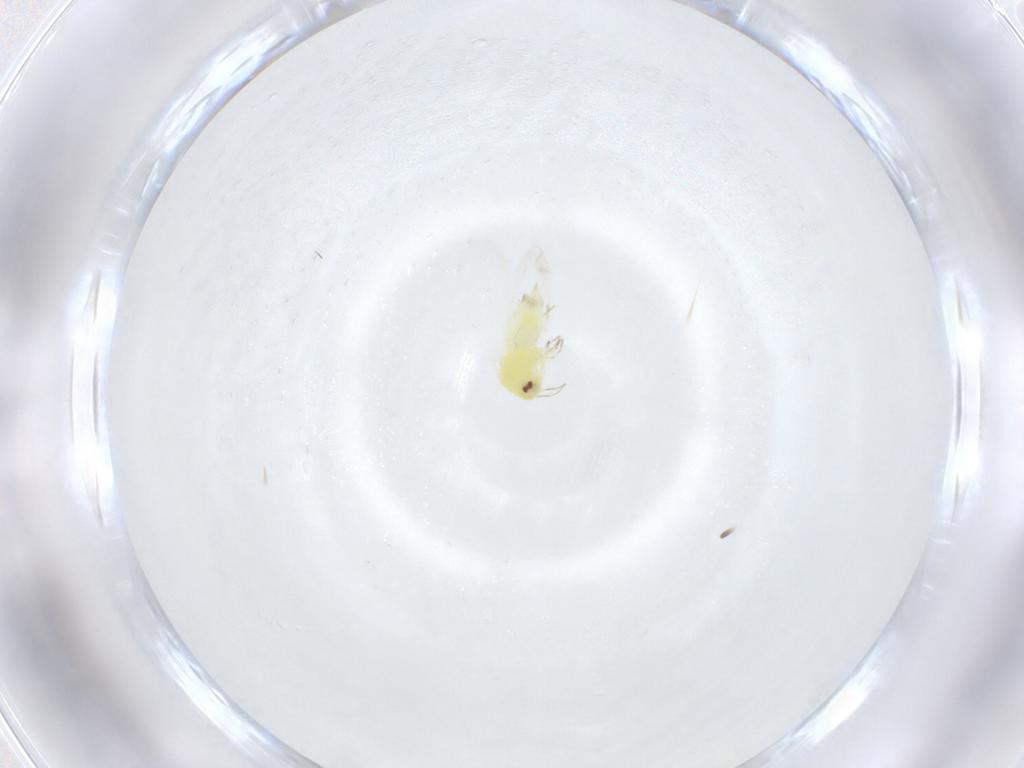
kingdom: Animalia
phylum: Arthropoda
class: Insecta
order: Hemiptera
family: Aleyrodidae
